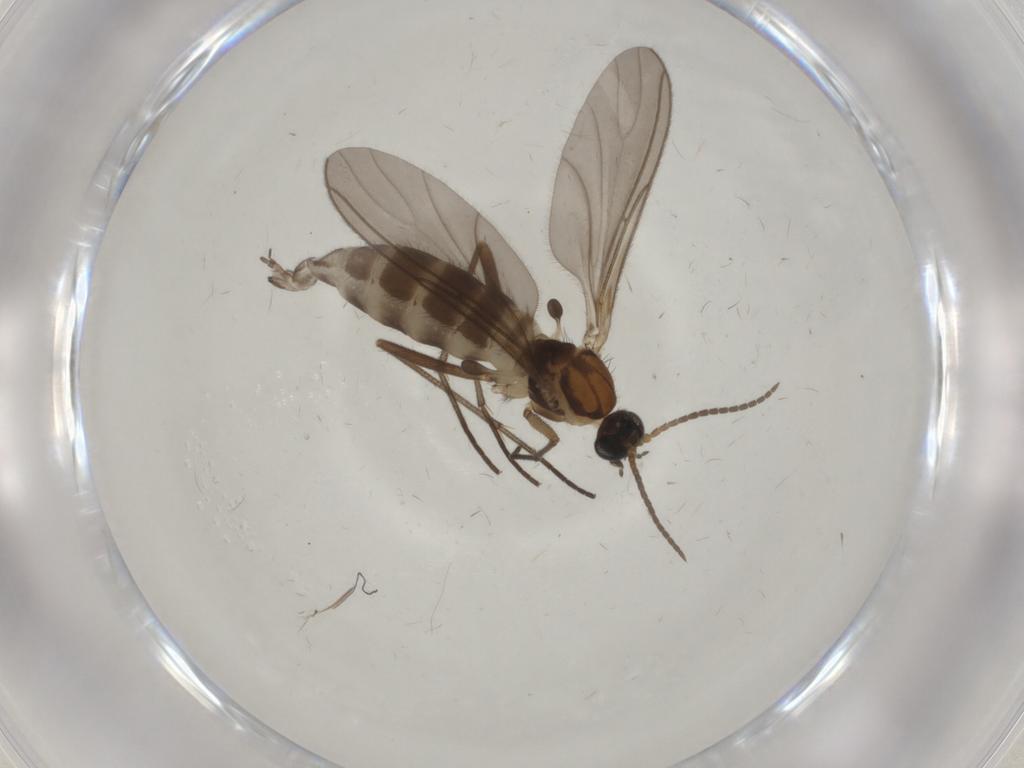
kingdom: Animalia
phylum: Arthropoda
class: Insecta
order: Diptera
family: Sciaridae
